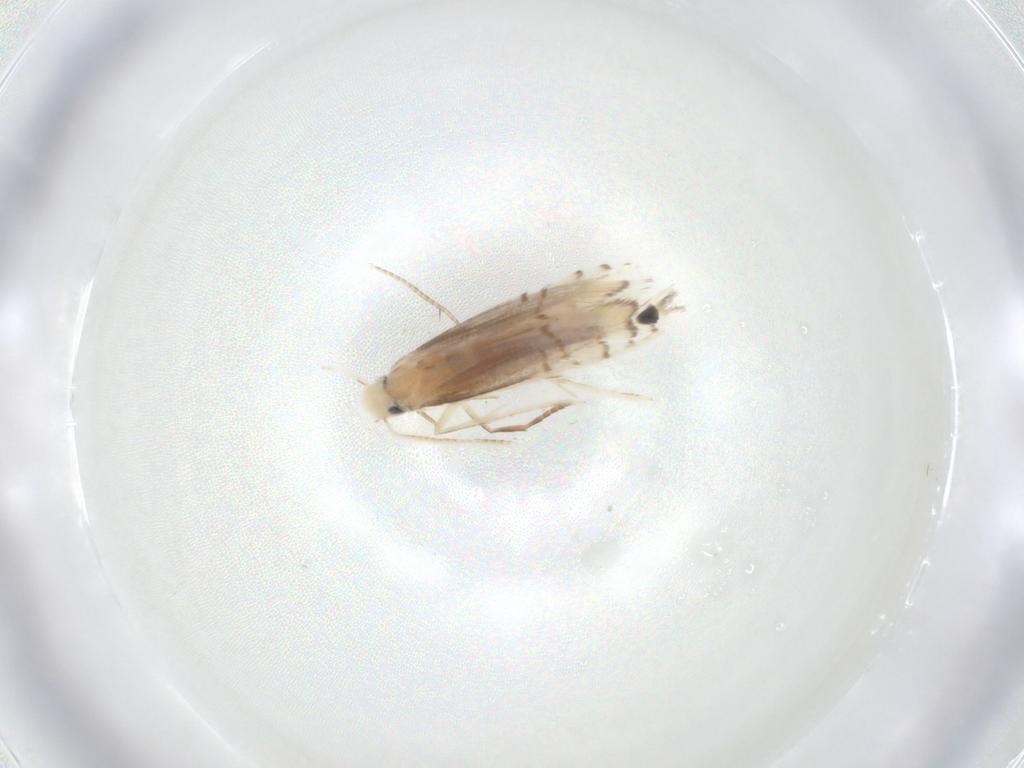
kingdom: Animalia
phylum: Arthropoda
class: Insecta
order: Lepidoptera
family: Gracillariidae
